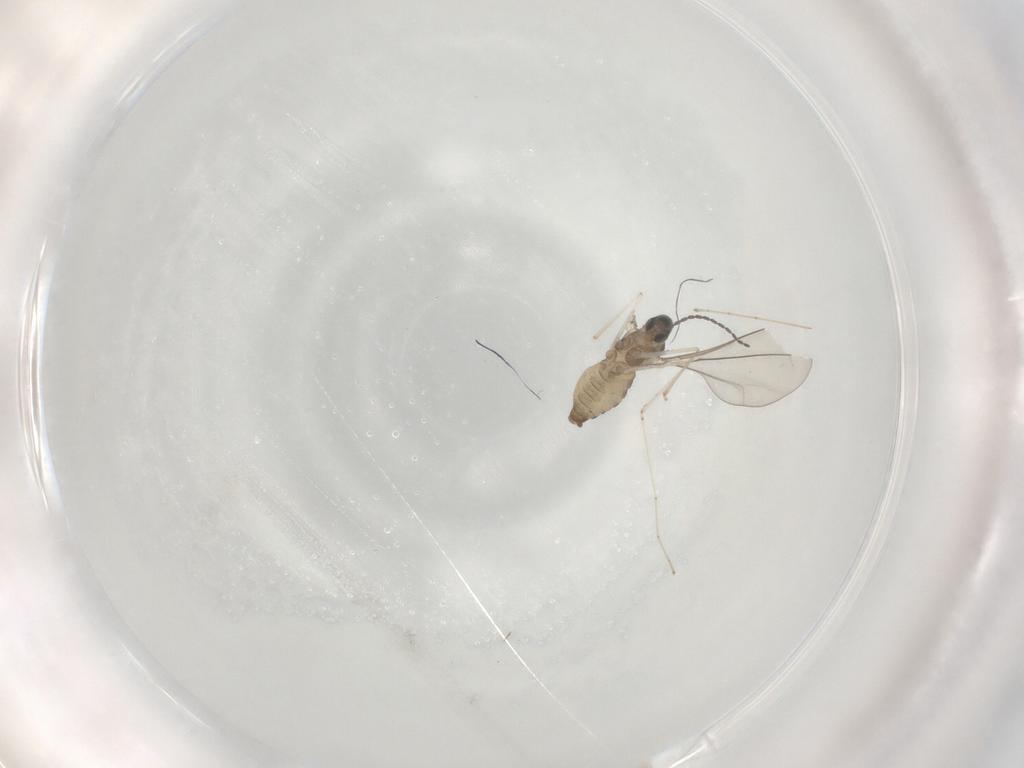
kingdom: Animalia
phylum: Arthropoda
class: Insecta
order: Diptera
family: Cecidomyiidae
